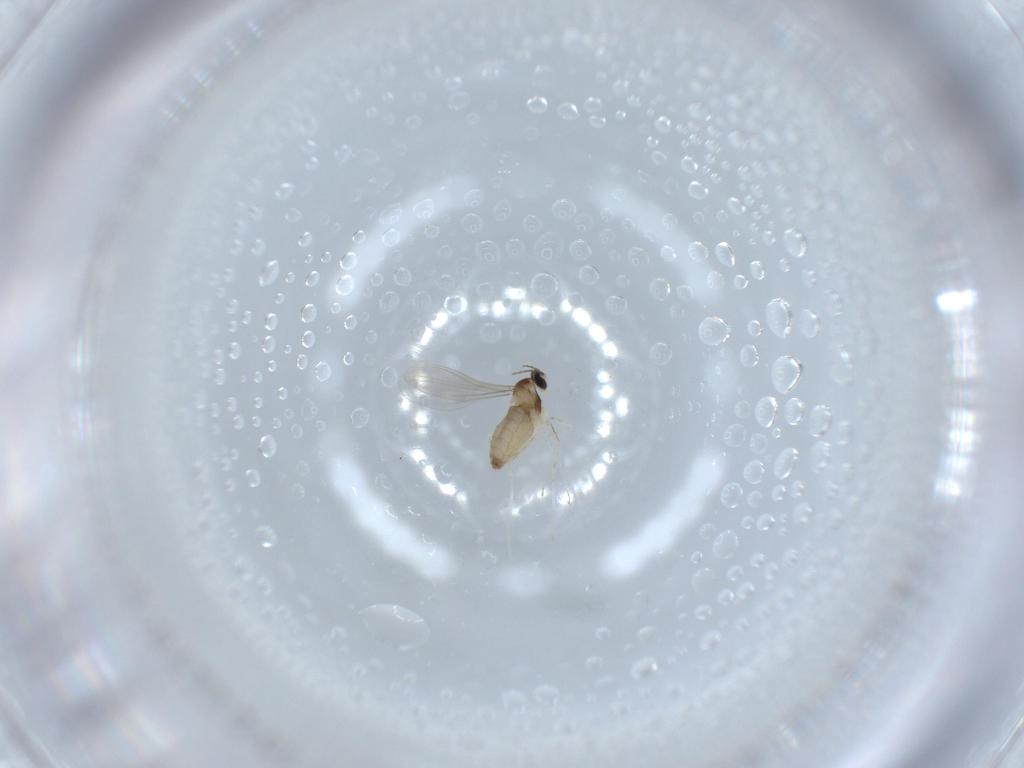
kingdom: Animalia
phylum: Arthropoda
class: Insecta
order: Diptera
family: Cecidomyiidae
